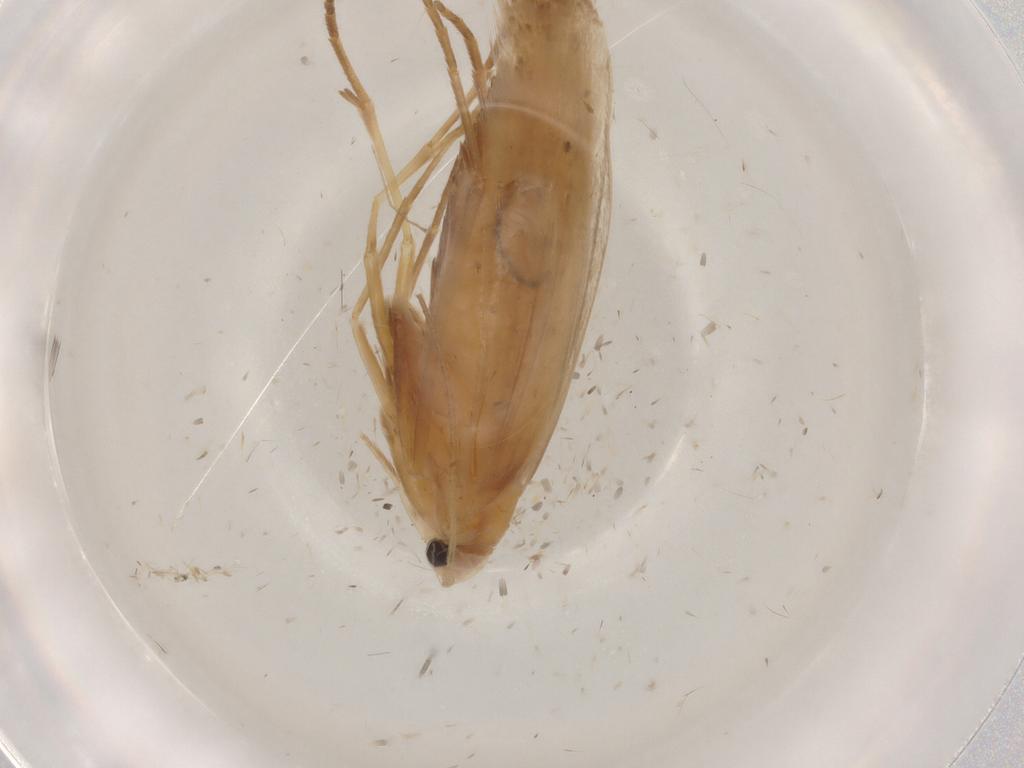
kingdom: Animalia
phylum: Arthropoda
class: Insecta
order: Lepidoptera
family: Xyloryctidae
